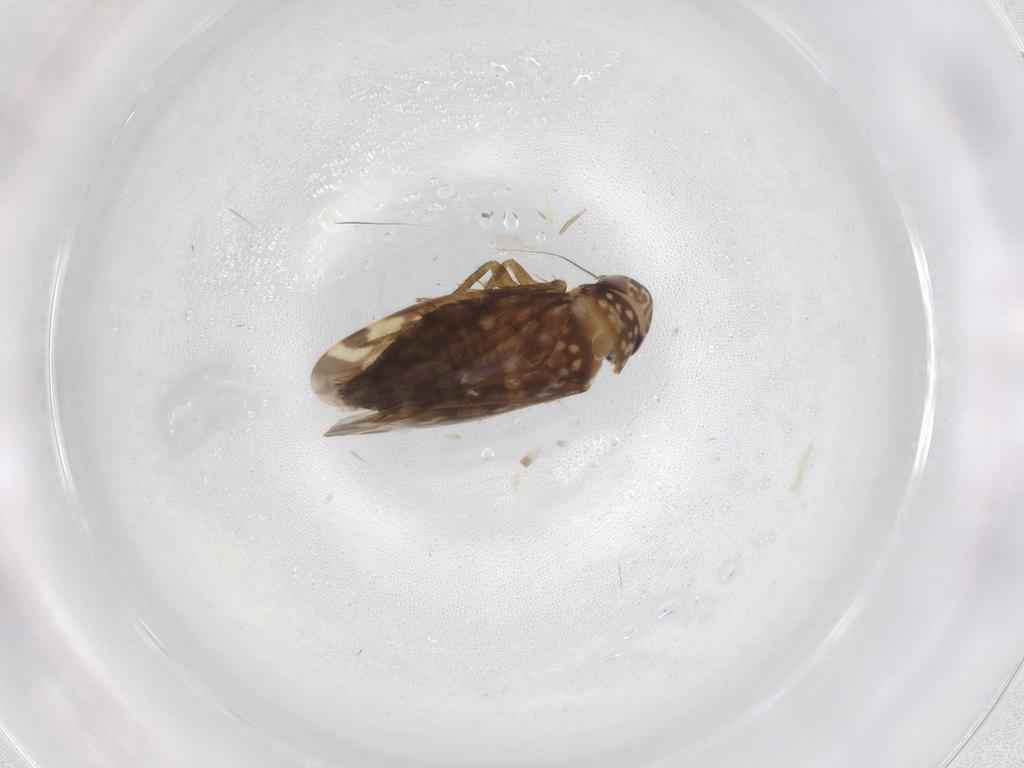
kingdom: Animalia
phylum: Arthropoda
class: Insecta
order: Hemiptera
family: Cicadellidae
